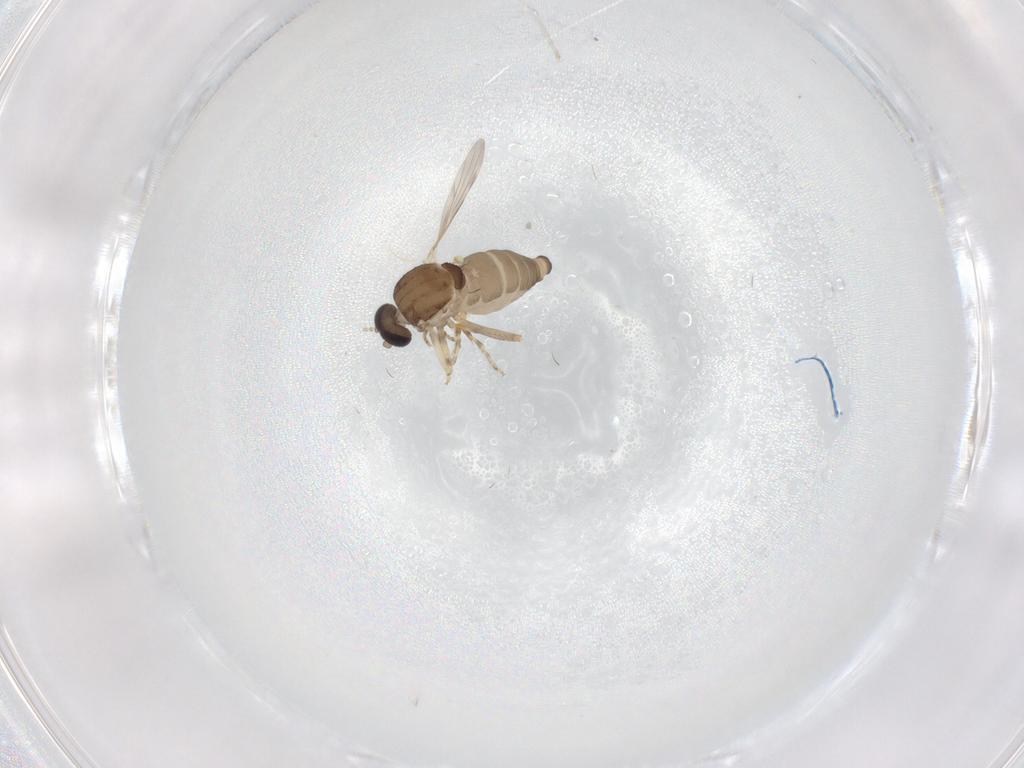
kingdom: Animalia
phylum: Arthropoda
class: Insecta
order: Diptera
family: Ceratopogonidae
